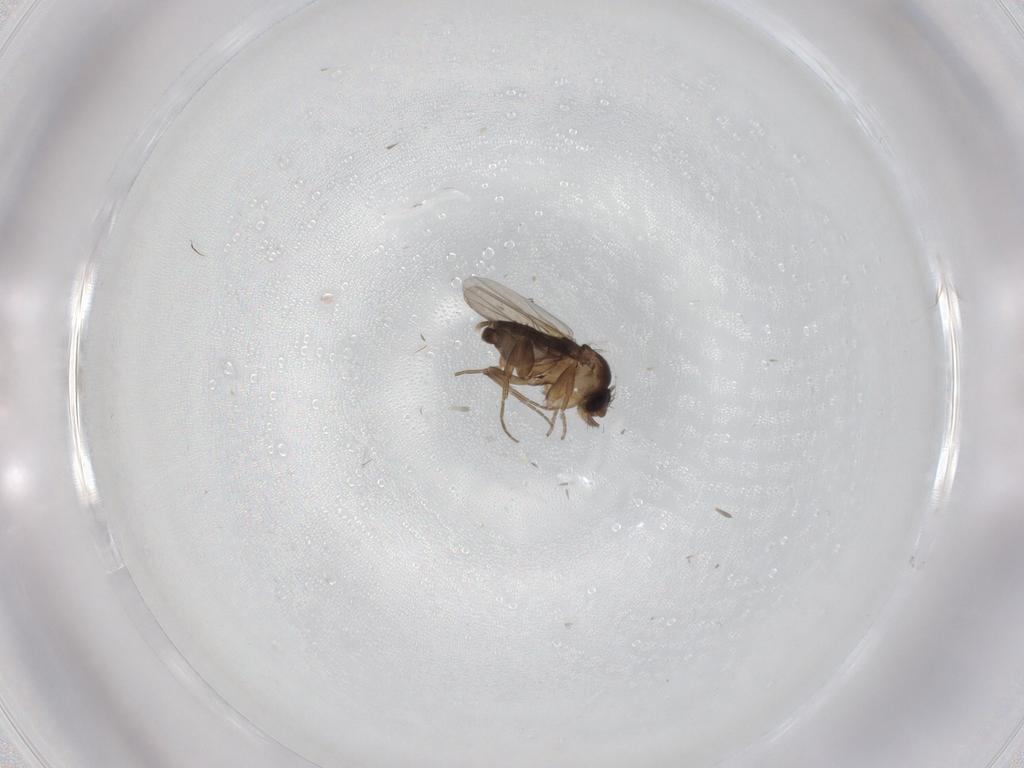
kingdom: Animalia
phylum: Arthropoda
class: Insecta
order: Diptera
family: Phoridae
